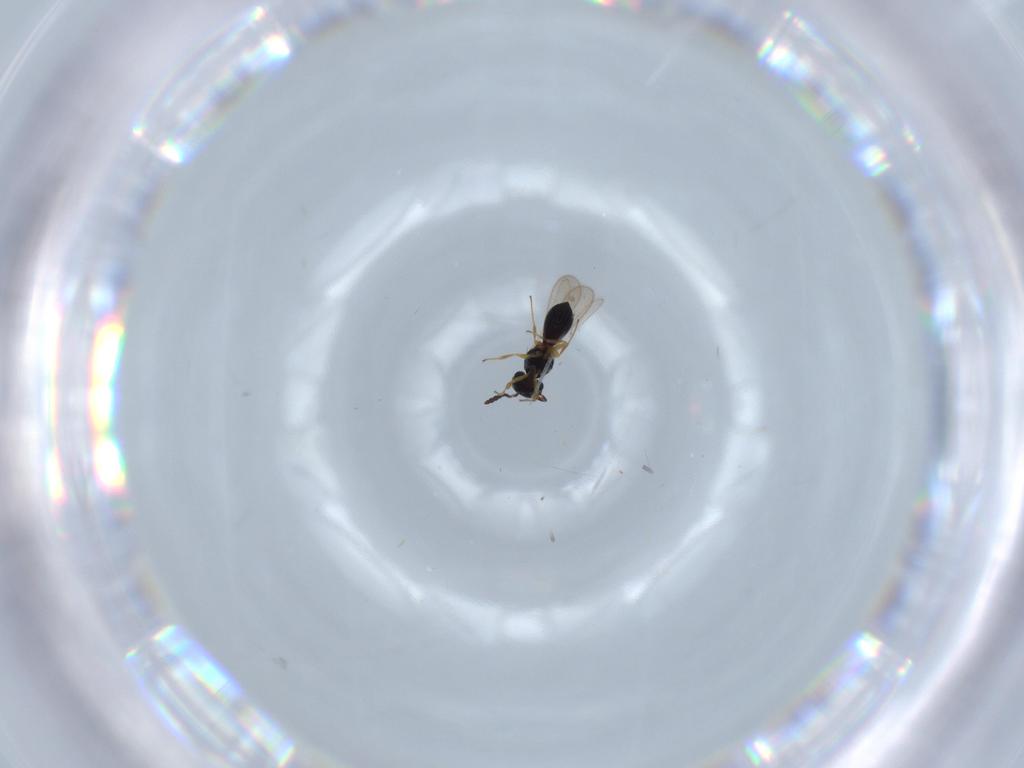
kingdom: Animalia
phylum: Arthropoda
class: Insecta
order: Hymenoptera
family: Scelionidae
